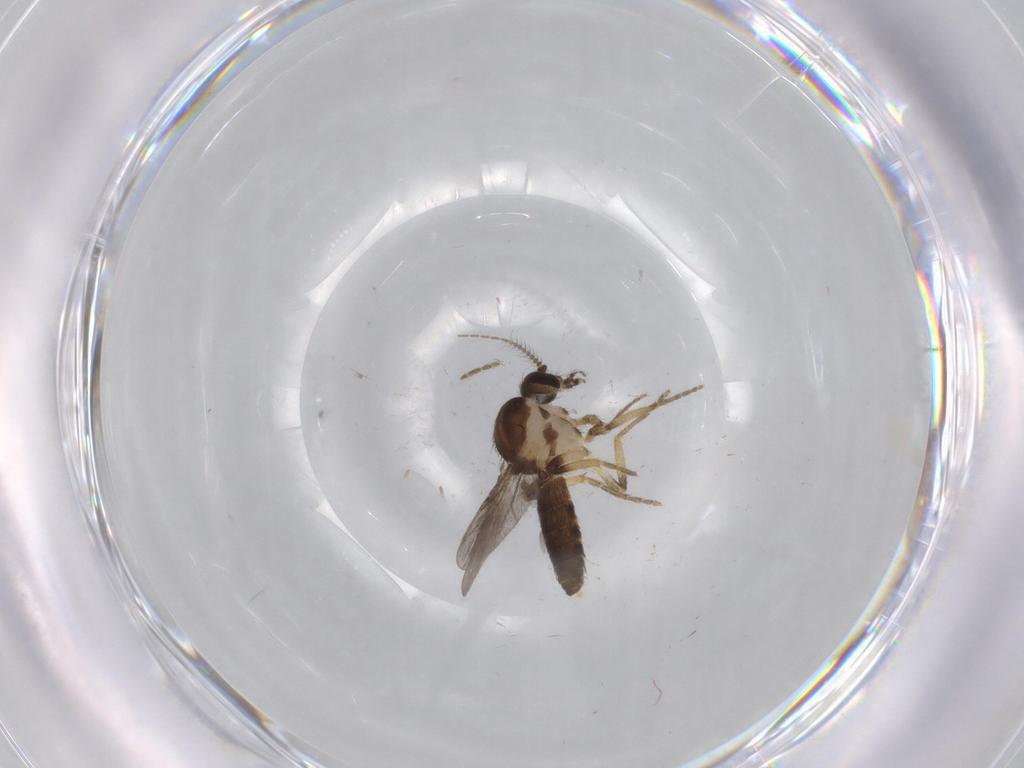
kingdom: Animalia
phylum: Arthropoda
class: Insecta
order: Diptera
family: Ceratopogonidae
